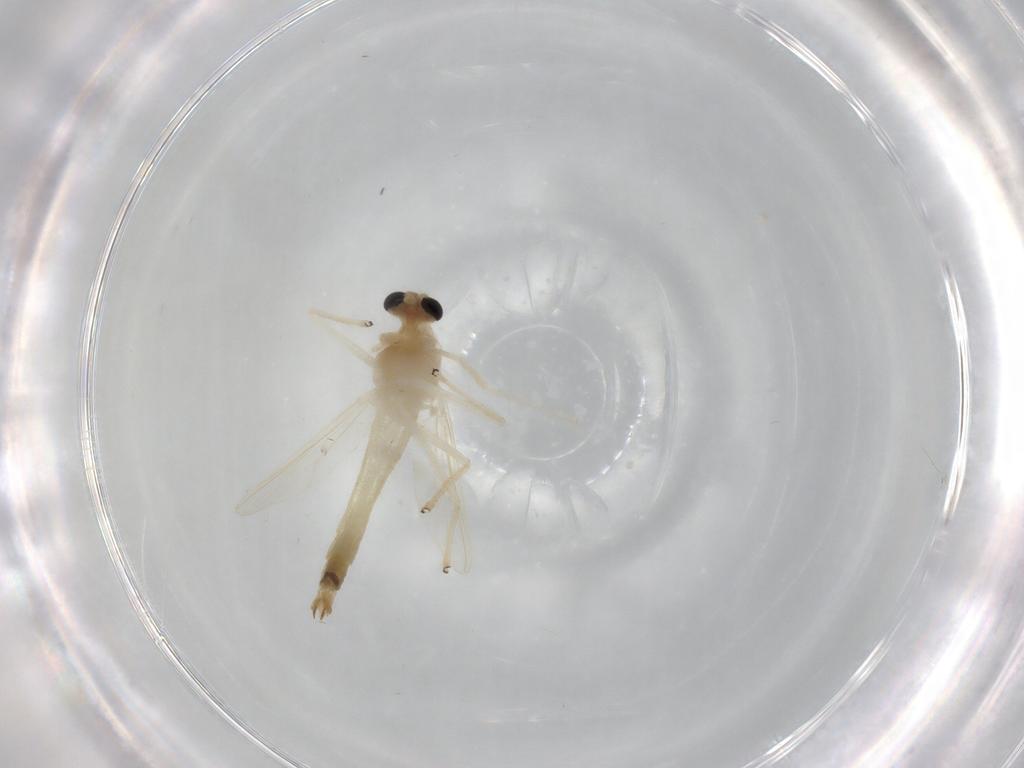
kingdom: Animalia
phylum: Arthropoda
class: Insecta
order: Diptera
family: Chironomidae
